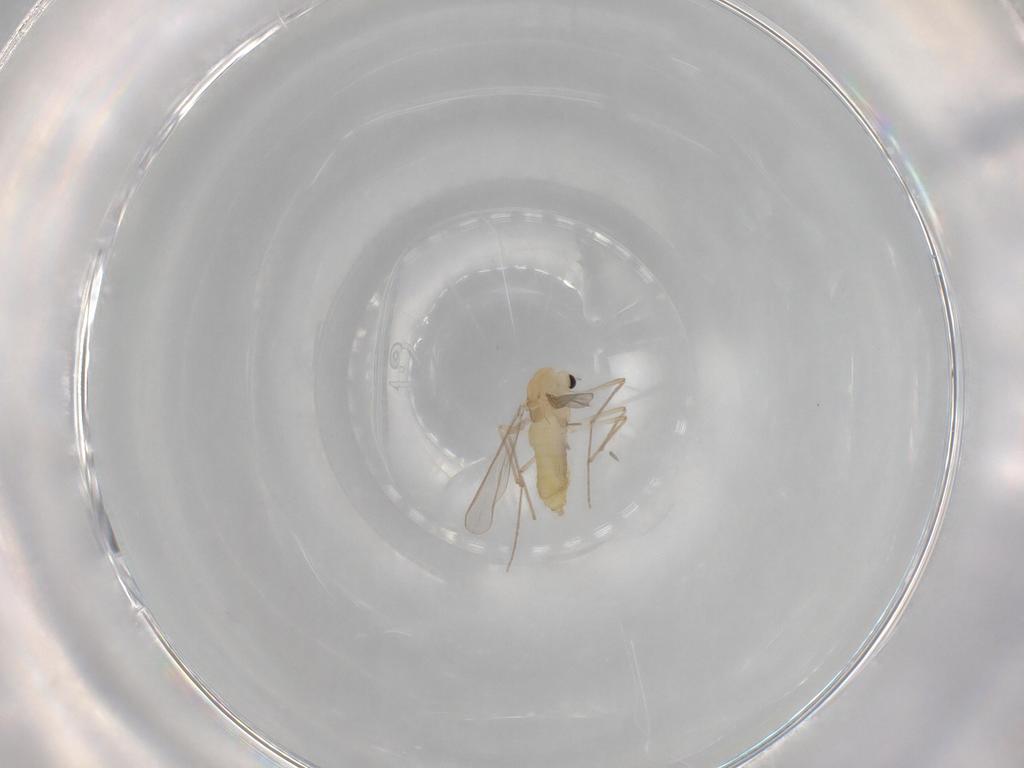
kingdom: Animalia
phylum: Arthropoda
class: Insecta
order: Diptera
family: Chironomidae
